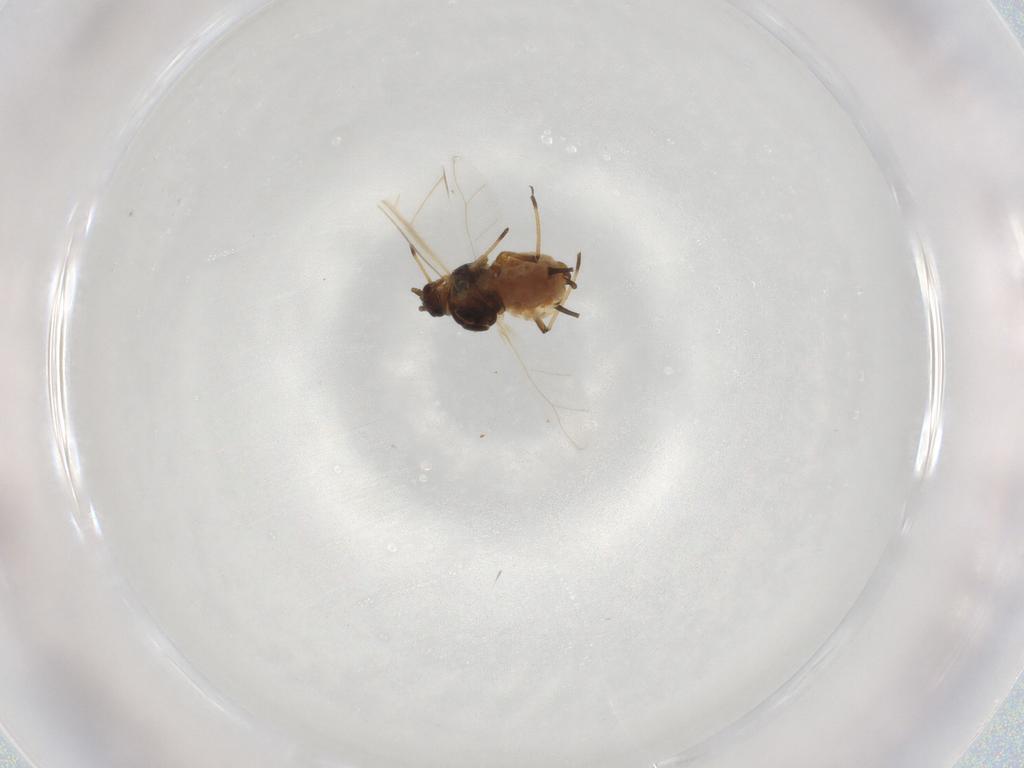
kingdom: Animalia
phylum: Arthropoda
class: Insecta
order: Hemiptera
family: Aphididae
